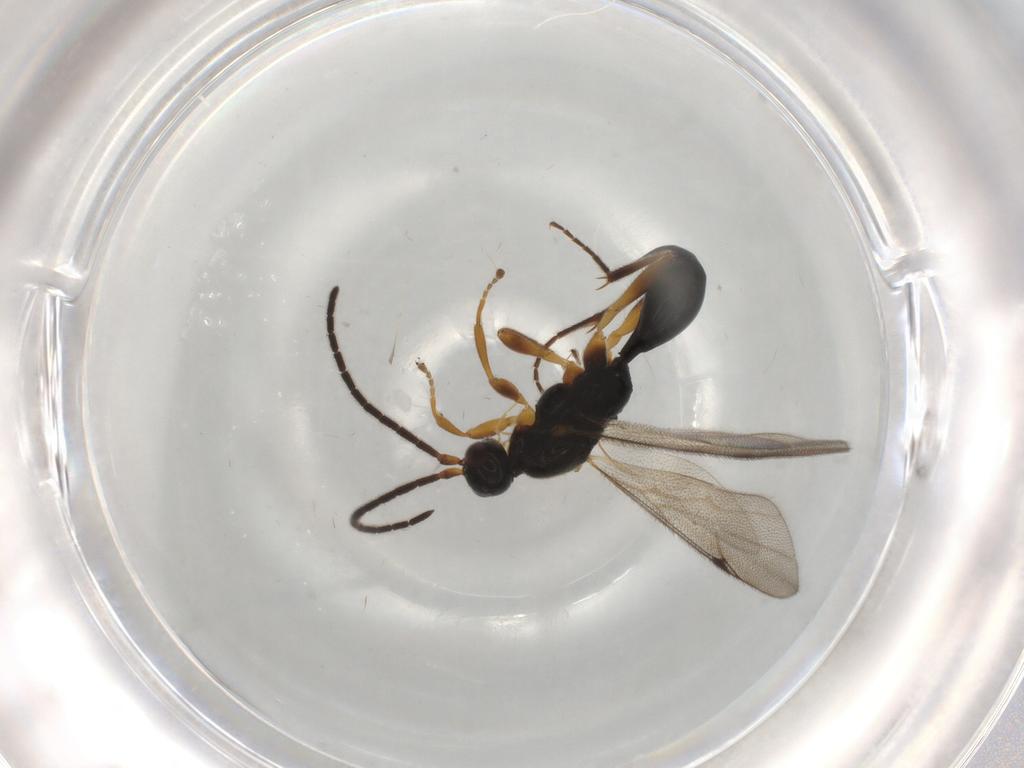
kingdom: Animalia
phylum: Arthropoda
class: Insecta
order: Hymenoptera
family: Proctotrupidae
